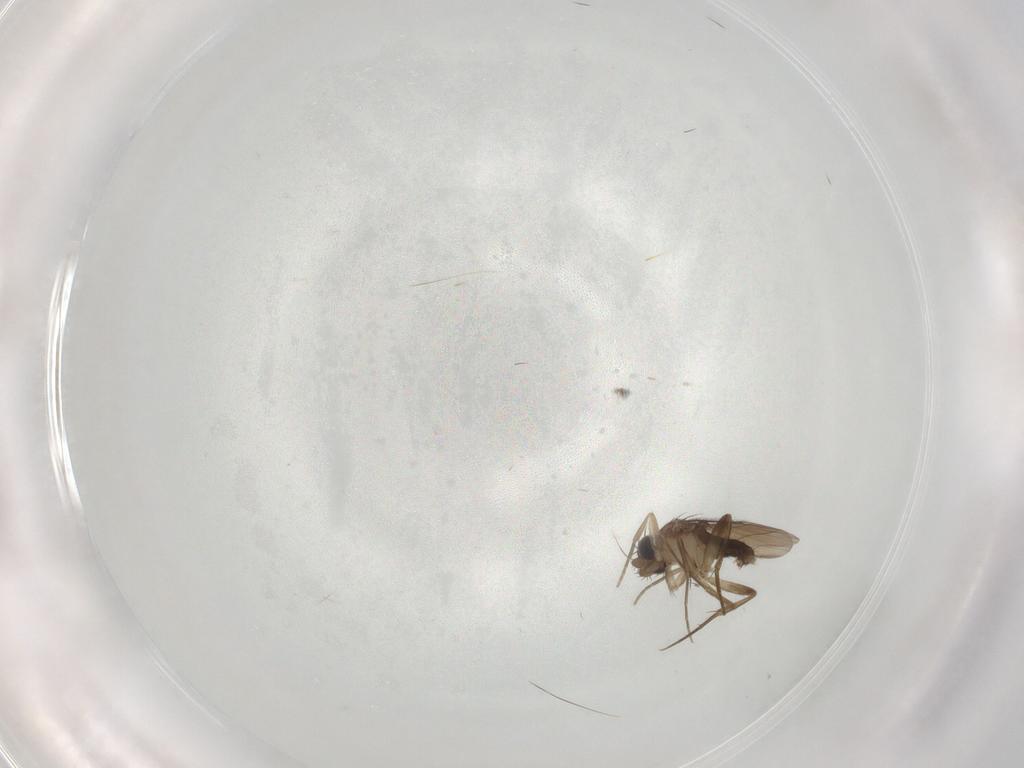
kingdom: Animalia
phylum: Arthropoda
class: Insecta
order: Diptera
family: Phoridae
